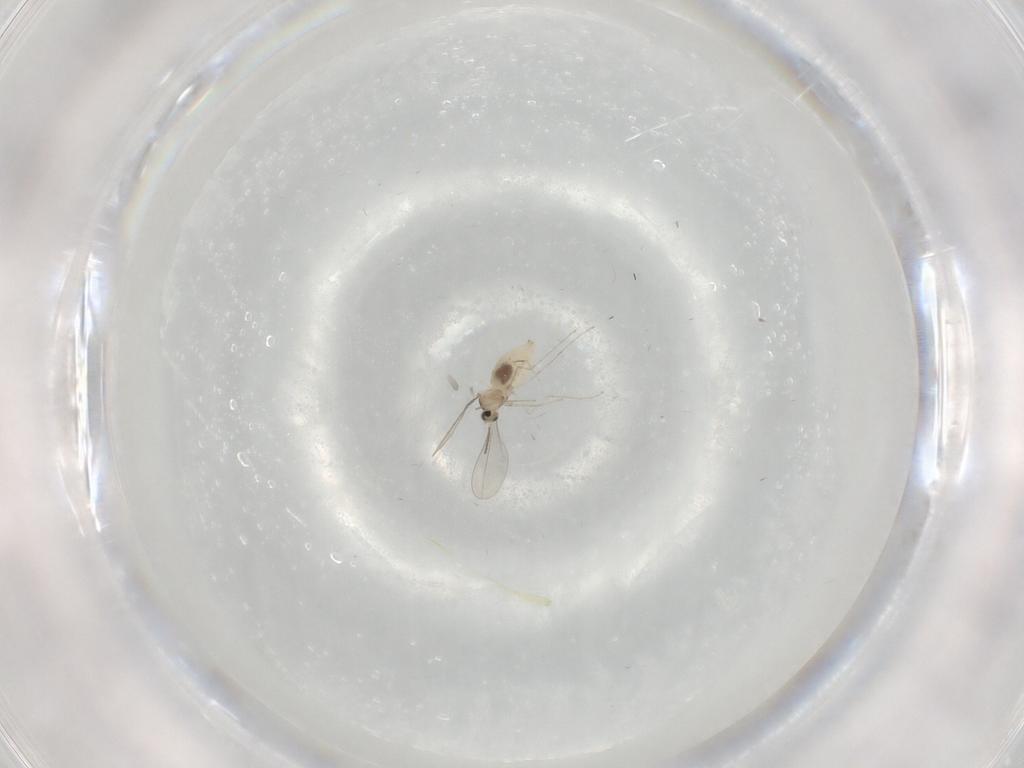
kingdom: Animalia
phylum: Arthropoda
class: Insecta
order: Diptera
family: Cecidomyiidae
